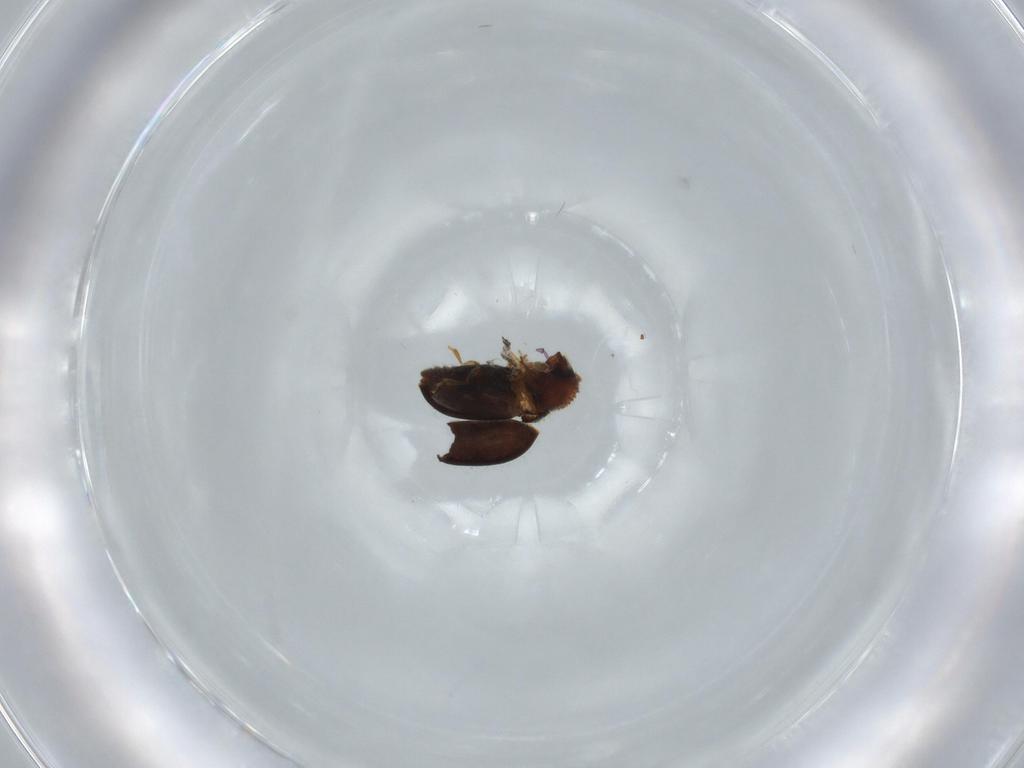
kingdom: Animalia
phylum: Arthropoda
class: Insecta
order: Coleoptera
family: Curculionidae
